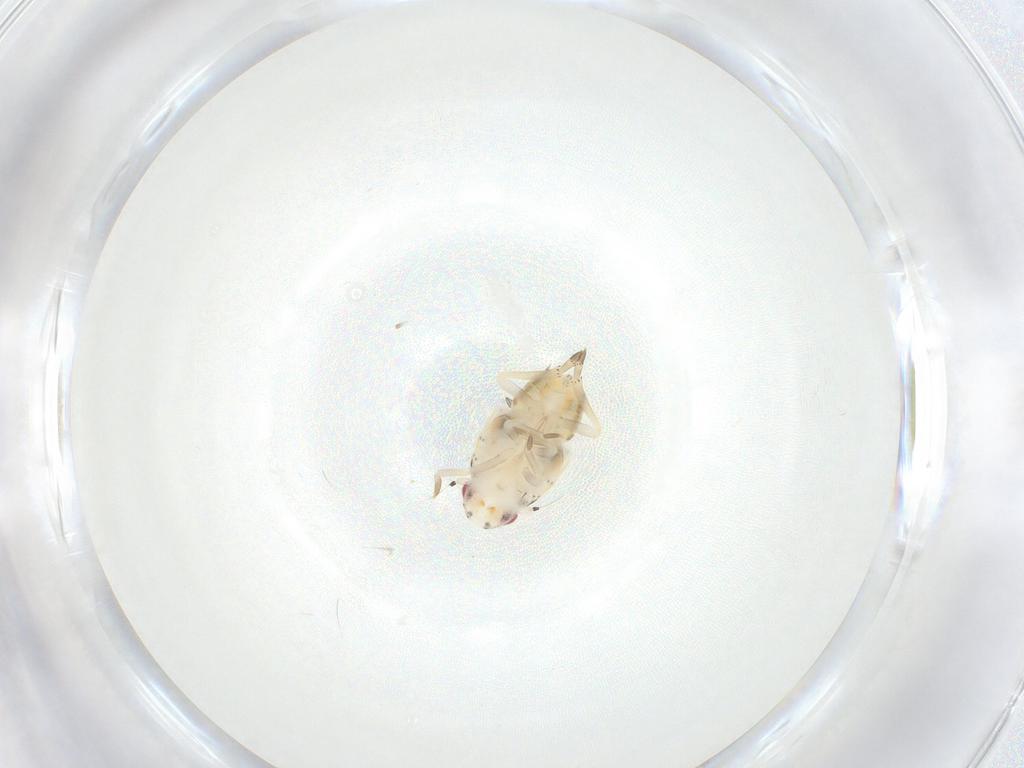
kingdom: Animalia
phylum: Arthropoda
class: Insecta
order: Hemiptera
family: Flatidae
